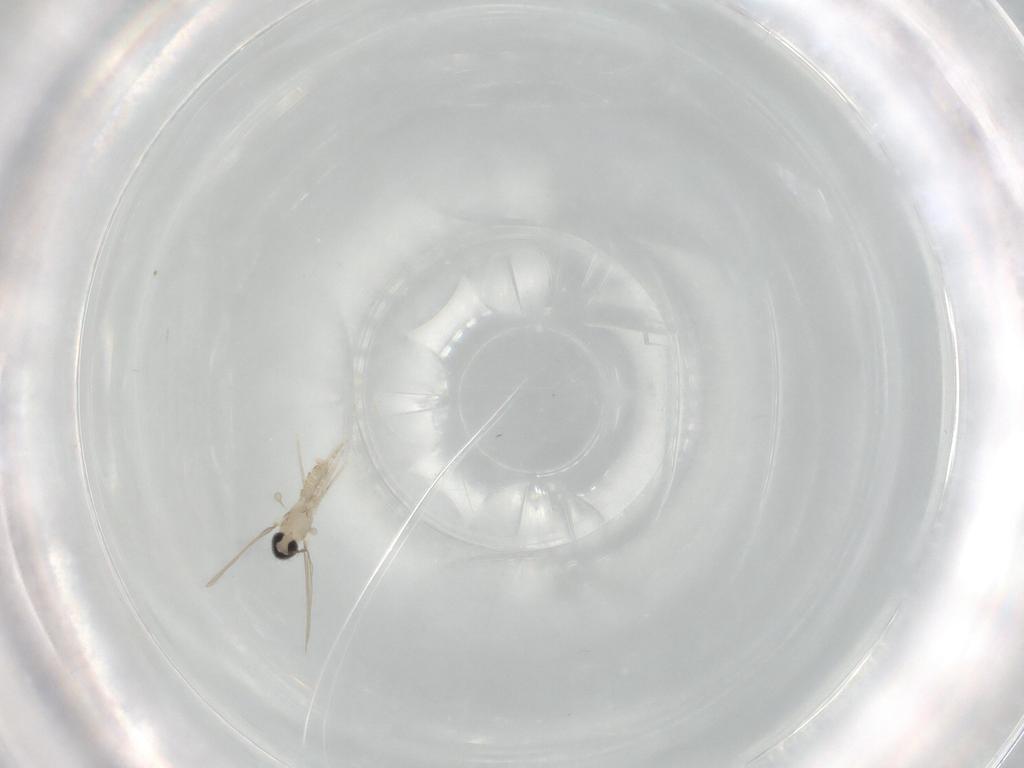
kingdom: Animalia
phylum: Arthropoda
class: Insecta
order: Diptera
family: Cecidomyiidae
